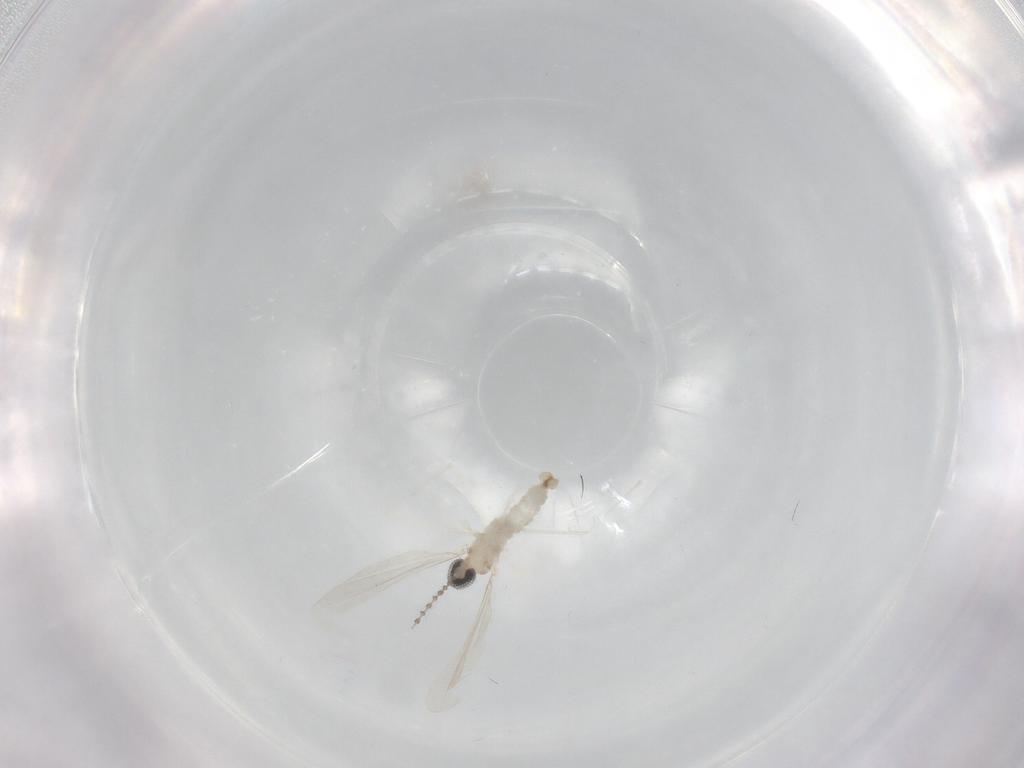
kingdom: Animalia
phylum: Arthropoda
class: Insecta
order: Diptera
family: Cecidomyiidae
